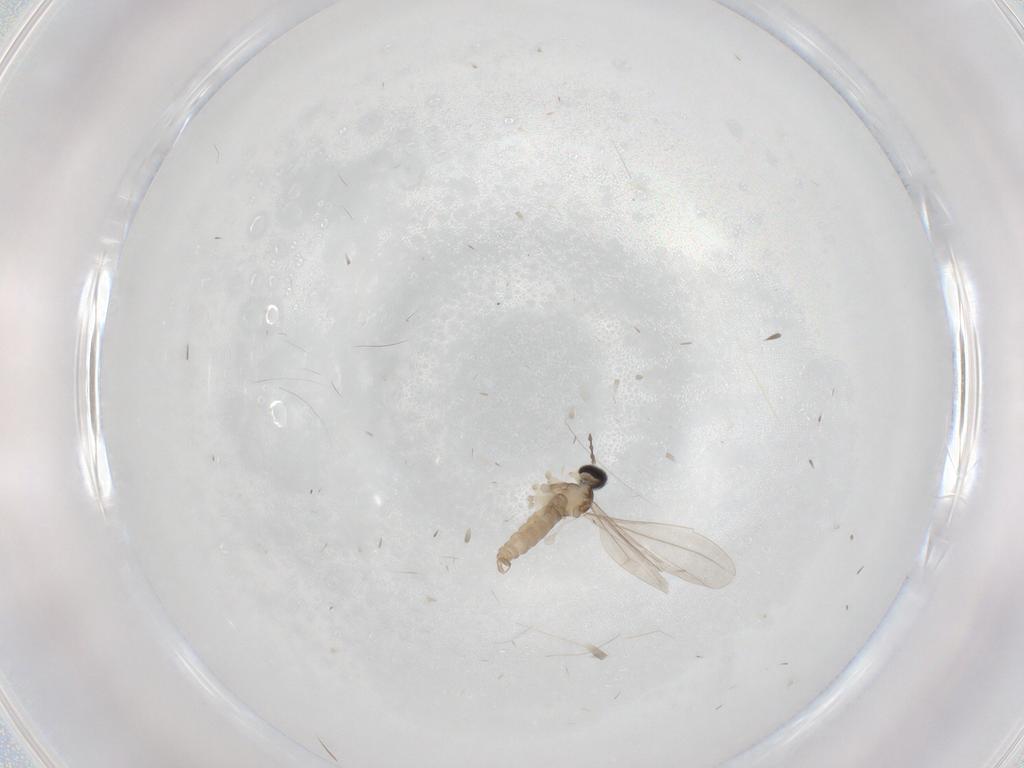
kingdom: Animalia
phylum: Arthropoda
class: Insecta
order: Diptera
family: Cecidomyiidae
